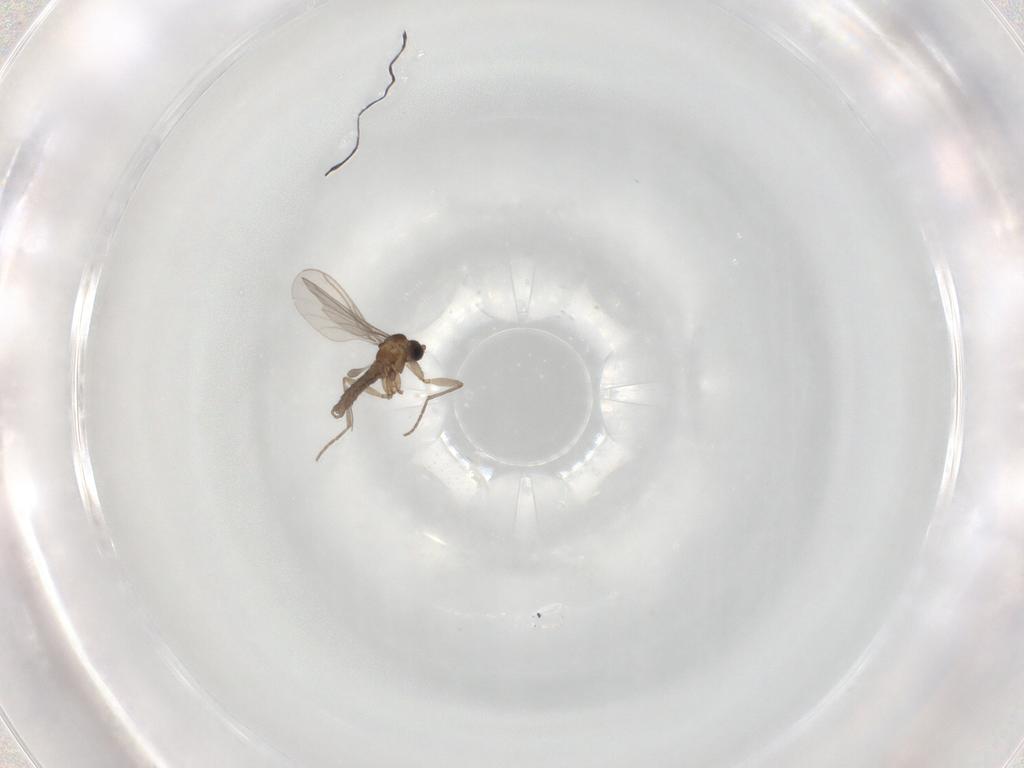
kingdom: Animalia
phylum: Arthropoda
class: Insecta
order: Diptera
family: Sciaridae
